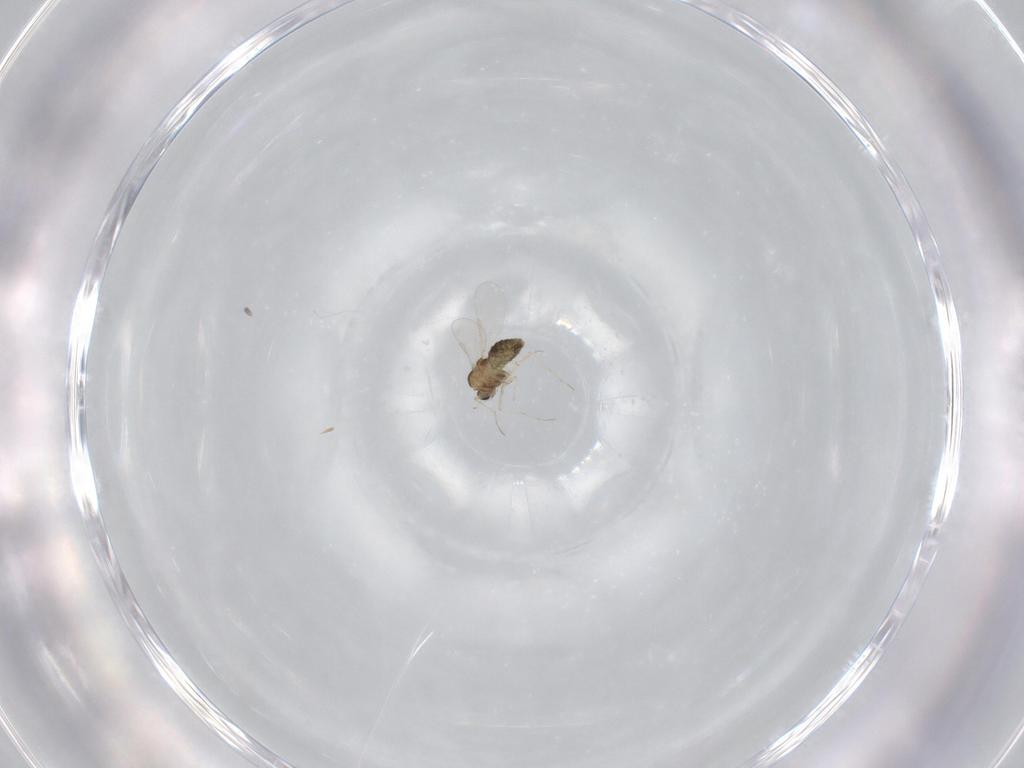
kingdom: Animalia
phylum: Arthropoda
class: Insecta
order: Diptera
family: Chironomidae
